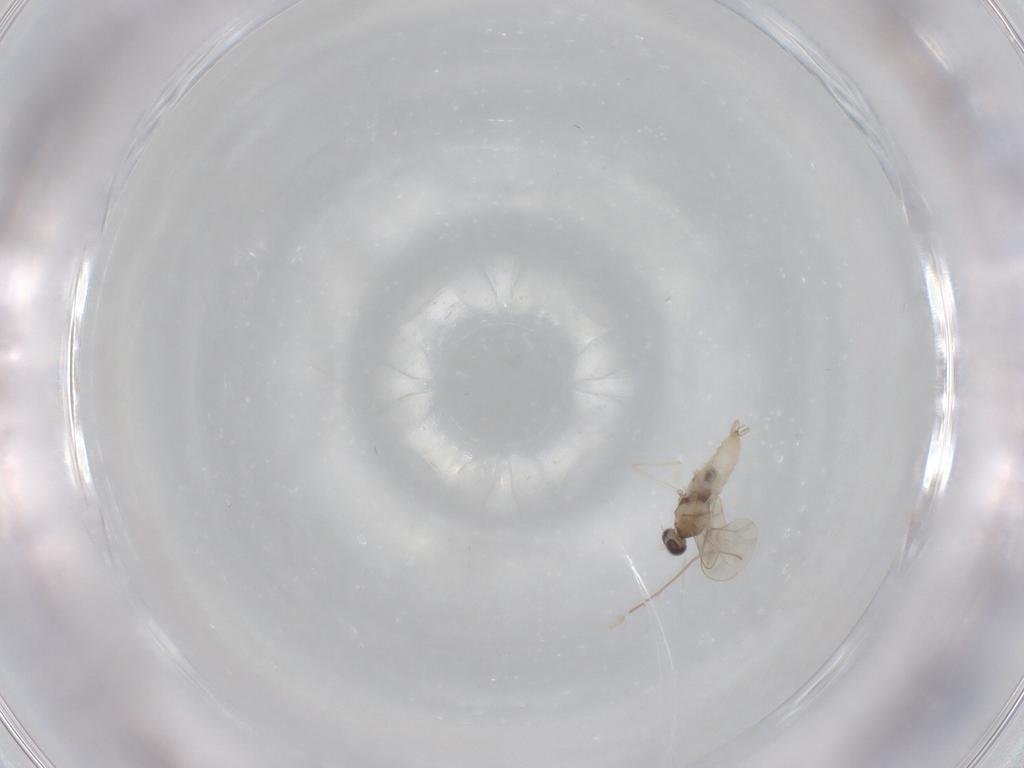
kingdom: Animalia
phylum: Arthropoda
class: Insecta
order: Diptera
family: Cecidomyiidae
